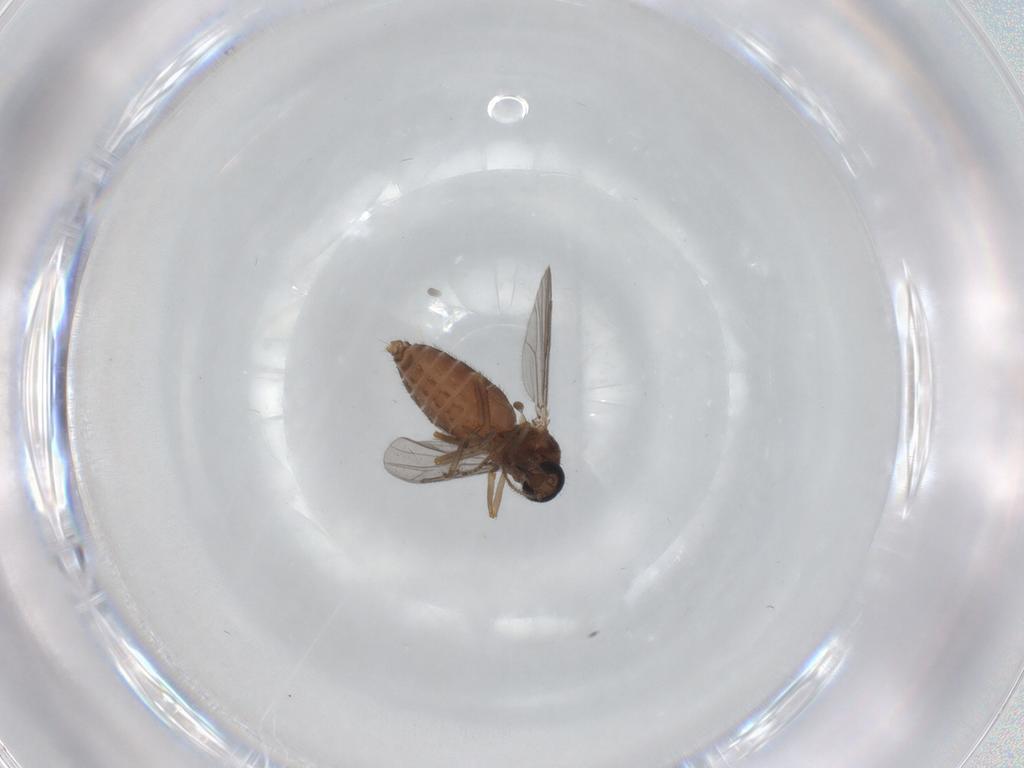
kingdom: Animalia
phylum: Arthropoda
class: Insecta
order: Diptera
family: Ceratopogonidae
